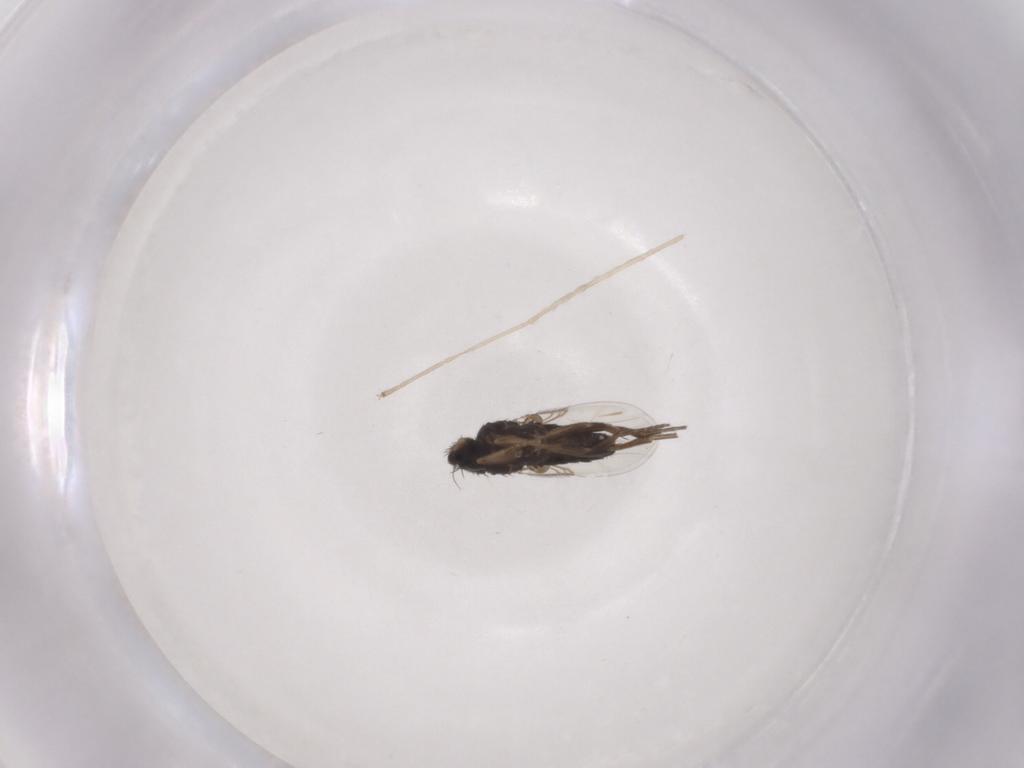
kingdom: Animalia
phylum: Arthropoda
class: Insecta
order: Diptera
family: Phoridae
